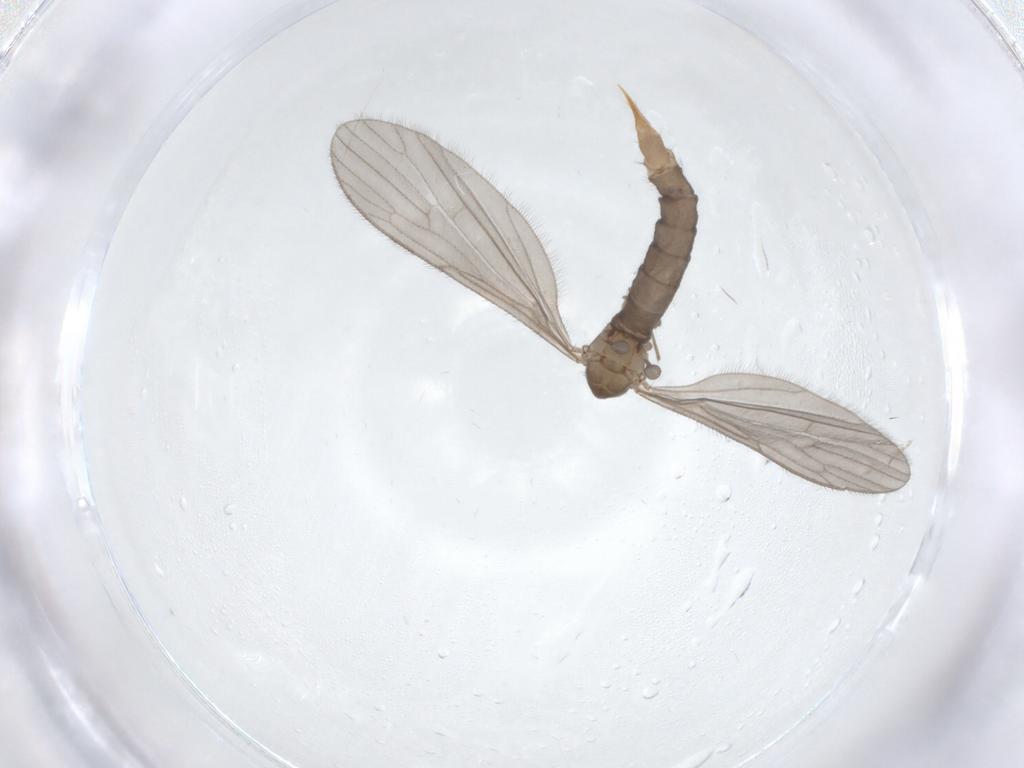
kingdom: Animalia
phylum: Arthropoda
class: Insecta
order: Diptera
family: Limoniidae
